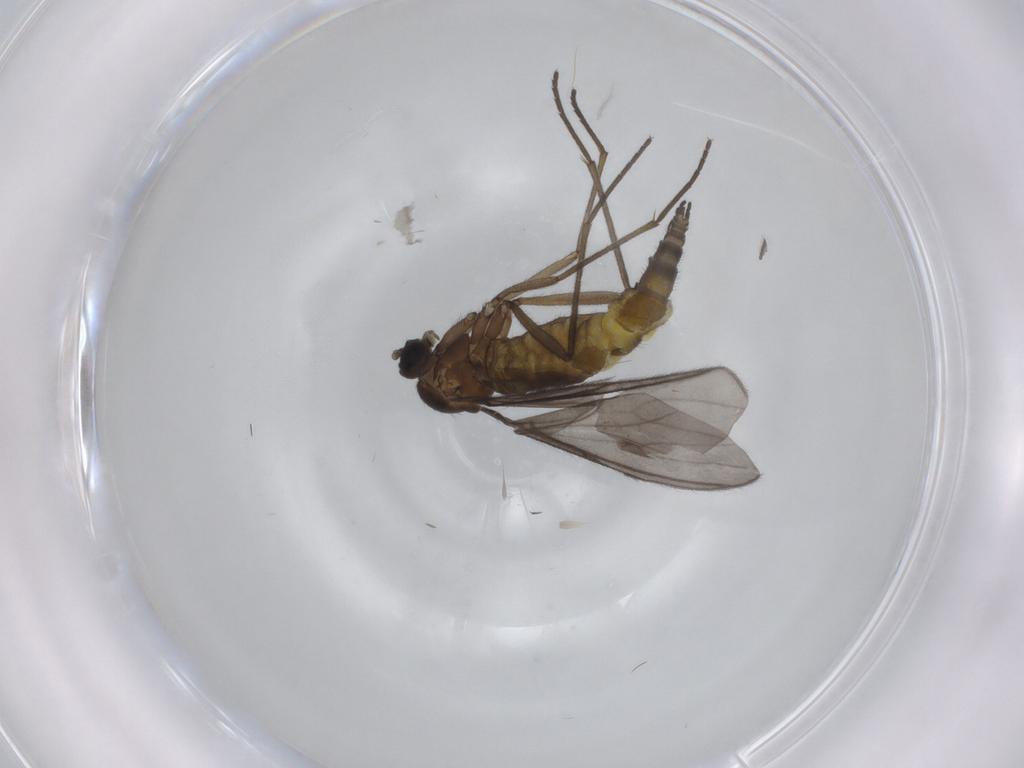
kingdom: Animalia
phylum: Arthropoda
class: Insecta
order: Diptera
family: Sciaridae
